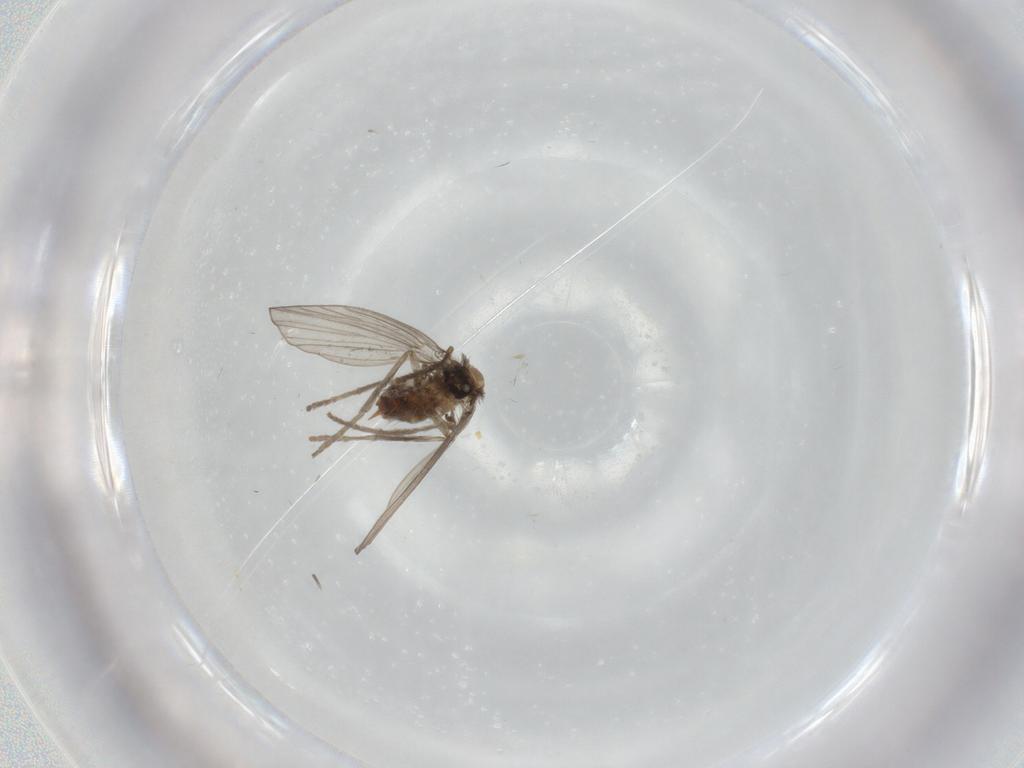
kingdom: Animalia
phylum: Arthropoda
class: Insecta
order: Diptera
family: Psychodidae
